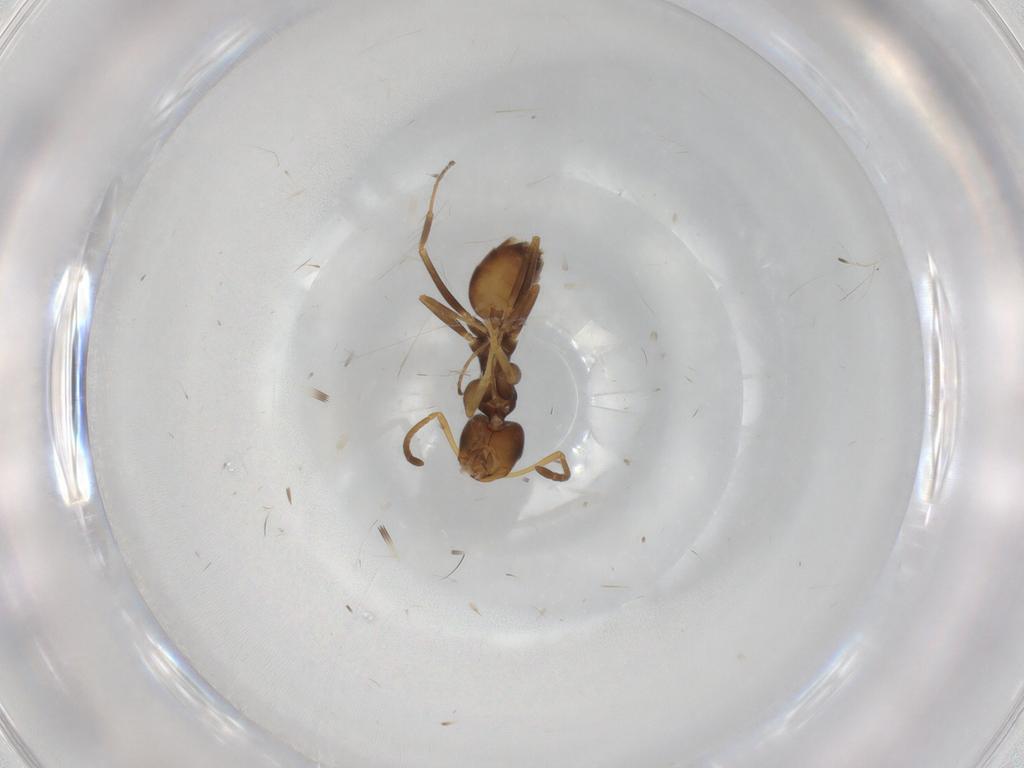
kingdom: Animalia
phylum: Arthropoda
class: Insecta
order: Hymenoptera
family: Formicidae
